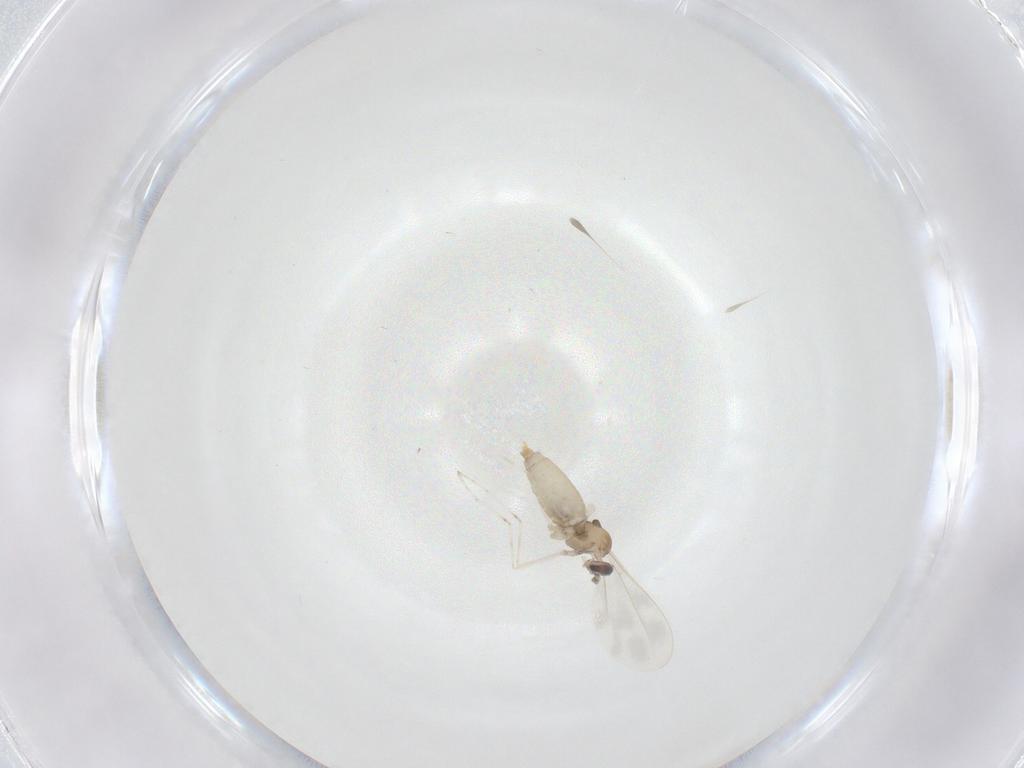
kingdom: Animalia
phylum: Arthropoda
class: Insecta
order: Diptera
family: Cecidomyiidae
